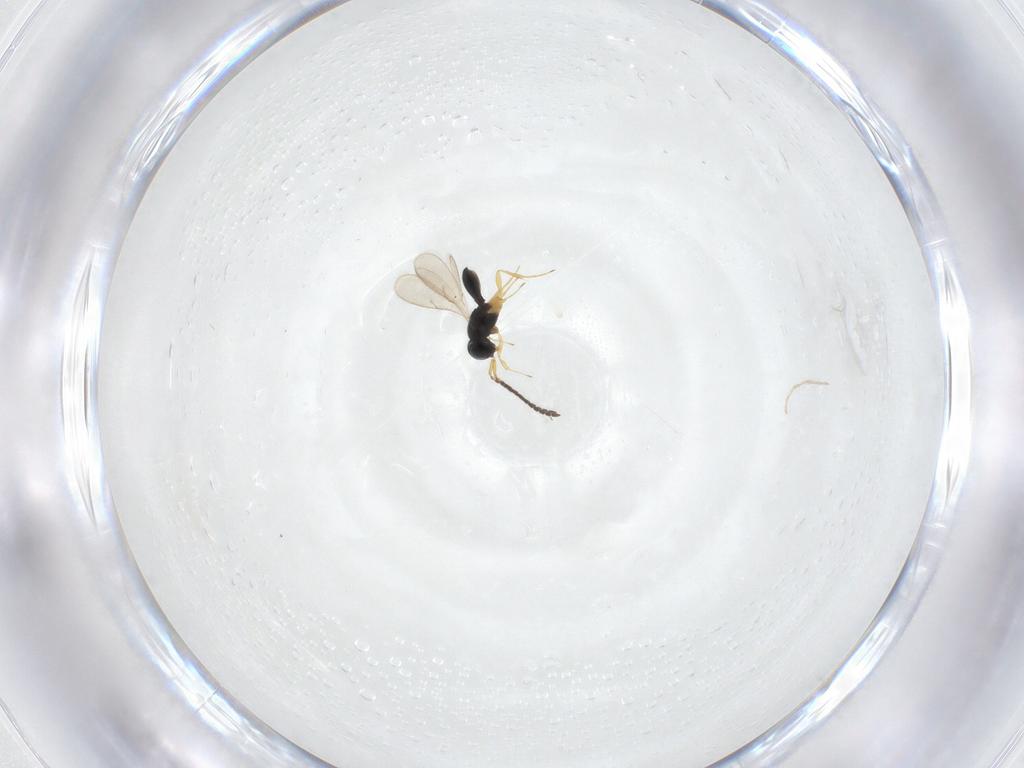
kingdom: Animalia
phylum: Arthropoda
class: Insecta
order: Hymenoptera
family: Scelionidae
